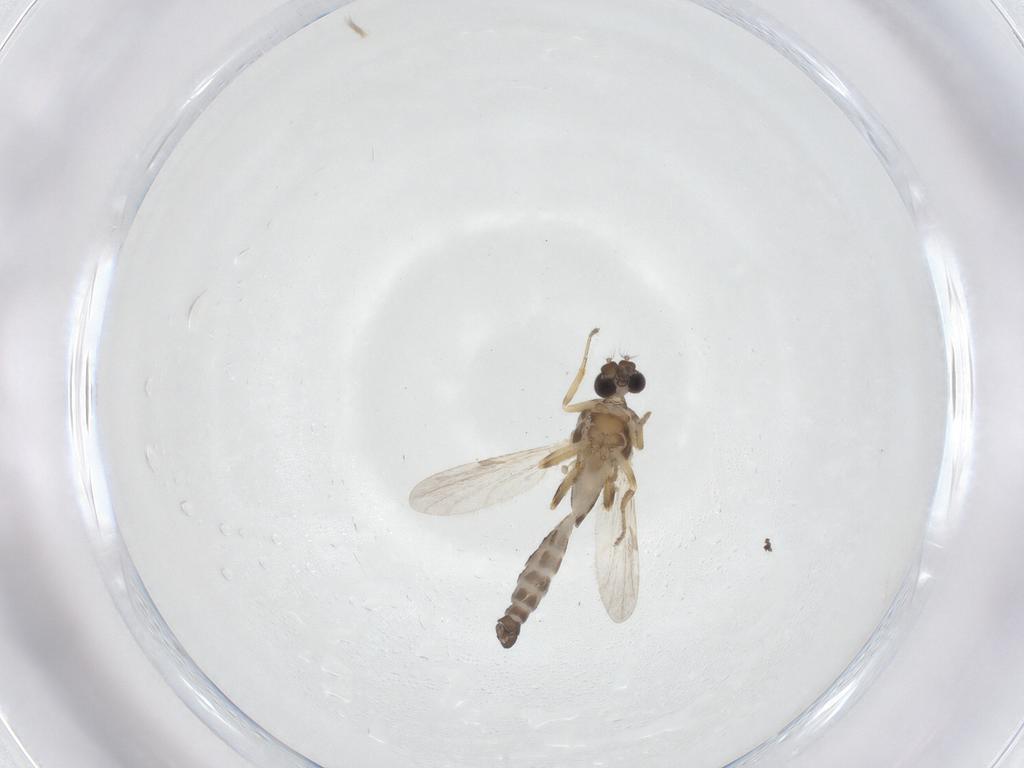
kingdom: Animalia
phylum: Arthropoda
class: Insecta
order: Diptera
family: Ceratopogonidae
